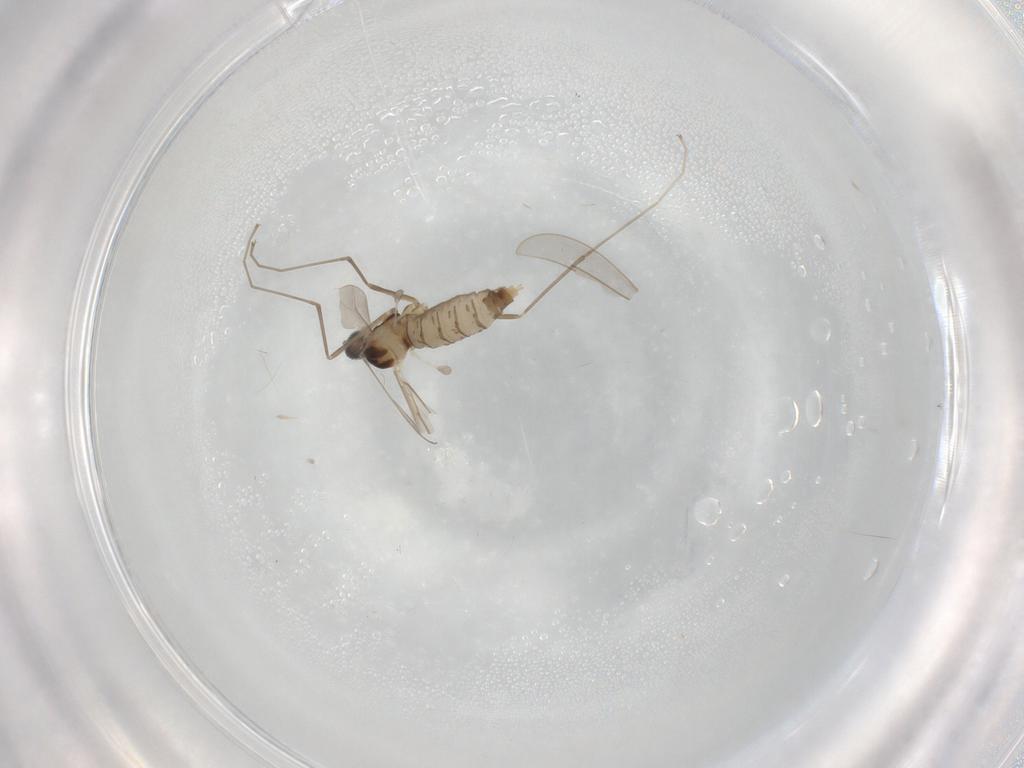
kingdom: Animalia
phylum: Arthropoda
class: Insecta
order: Diptera
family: Cecidomyiidae
